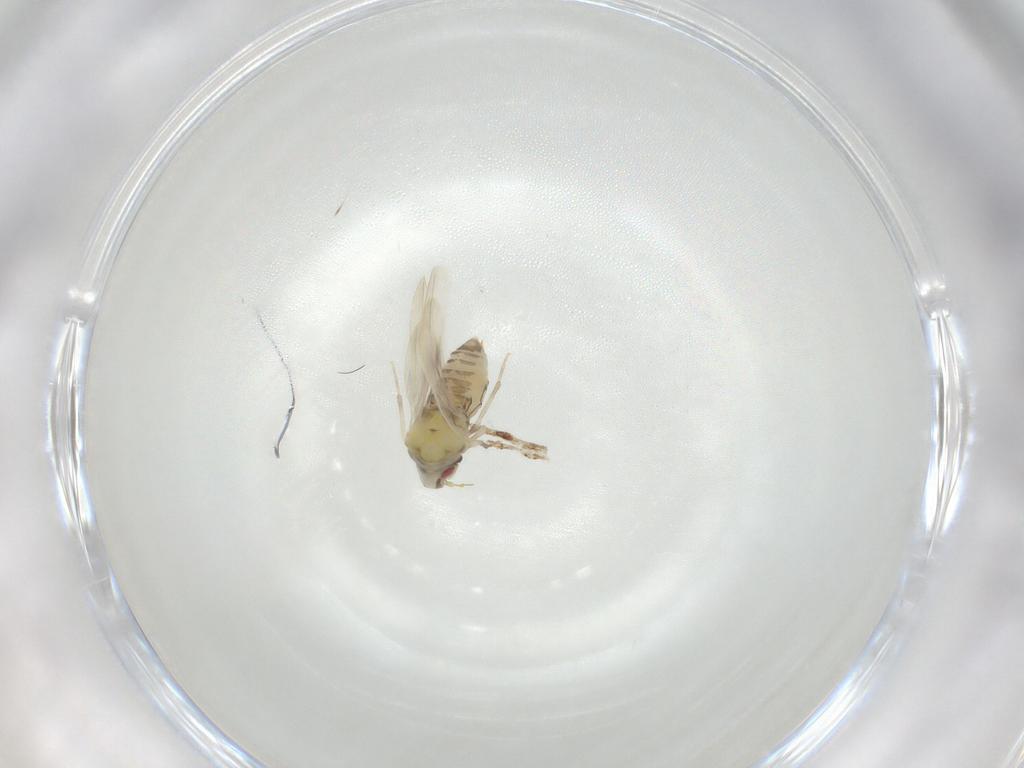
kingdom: Animalia
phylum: Arthropoda
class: Insecta
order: Hemiptera
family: Aleyrodidae
